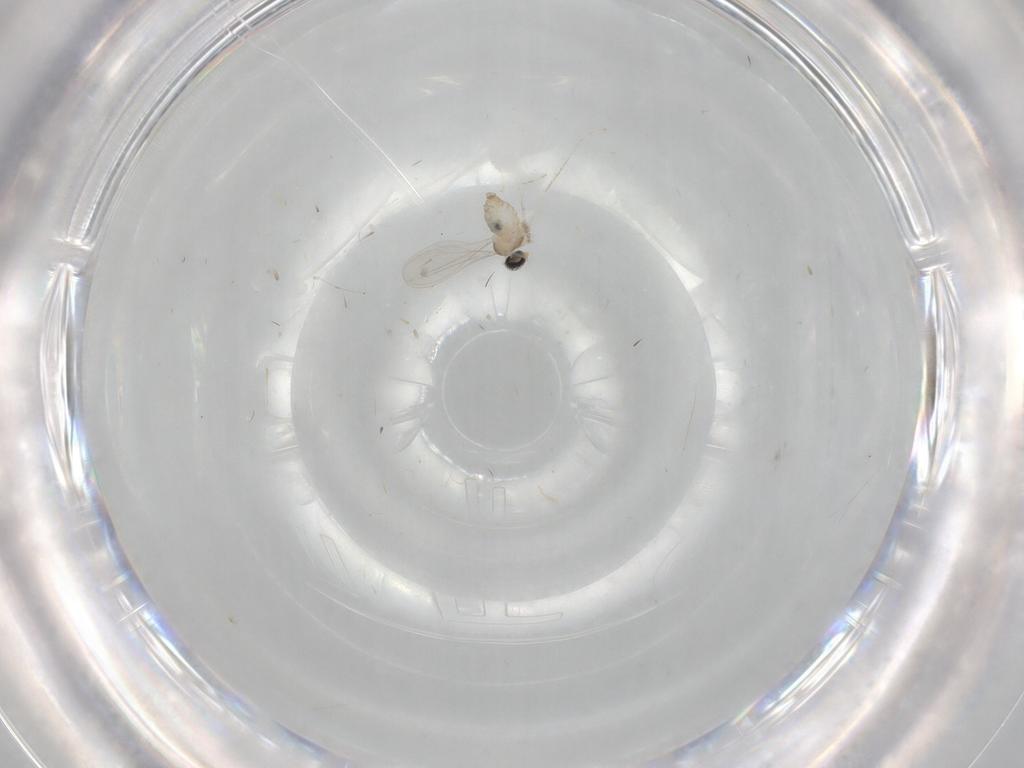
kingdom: Animalia
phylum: Arthropoda
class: Insecta
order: Diptera
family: Cecidomyiidae
